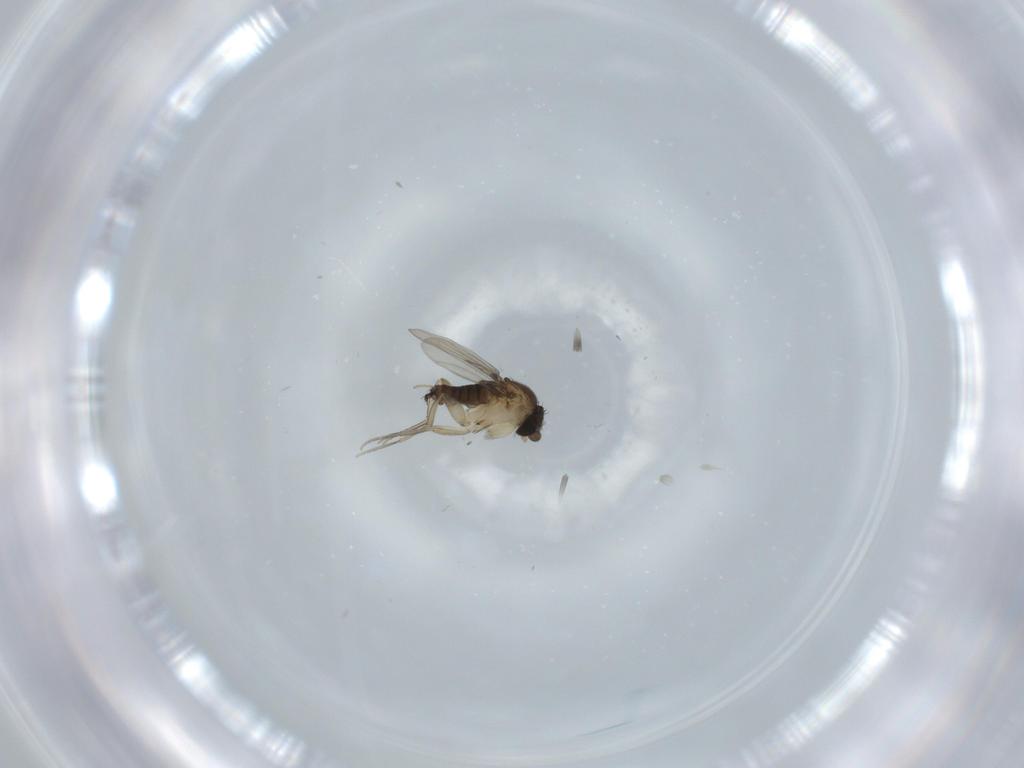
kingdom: Animalia
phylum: Arthropoda
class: Insecta
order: Diptera
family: Phoridae
